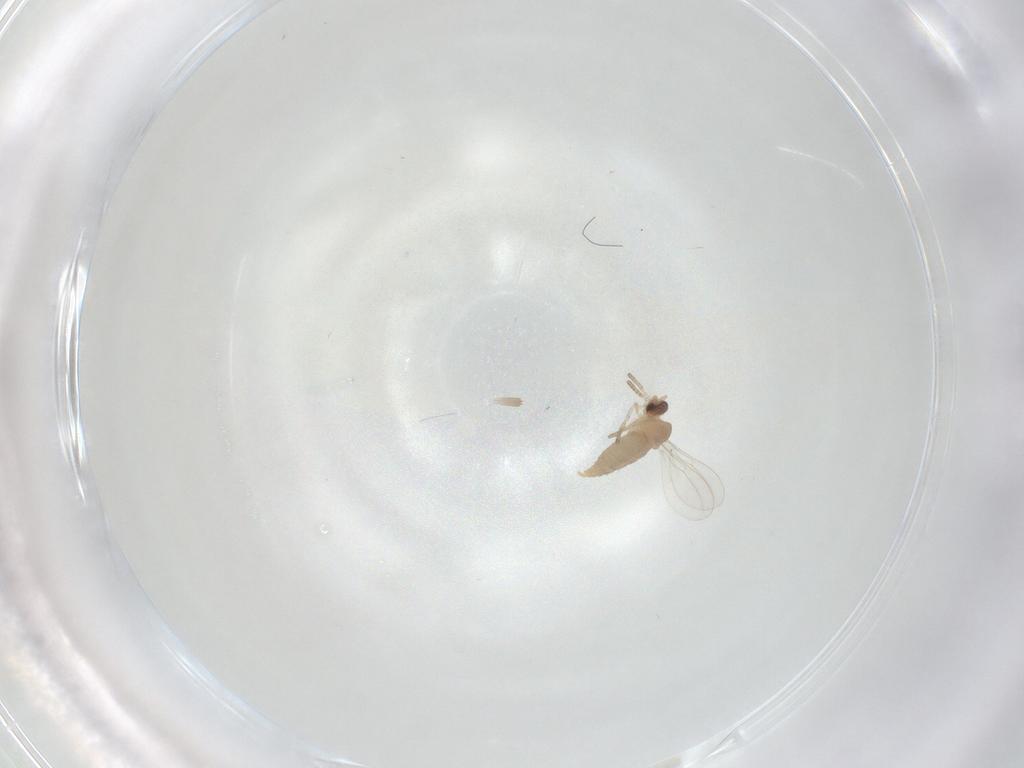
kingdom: Animalia
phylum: Arthropoda
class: Insecta
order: Diptera
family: Cecidomyiidae
